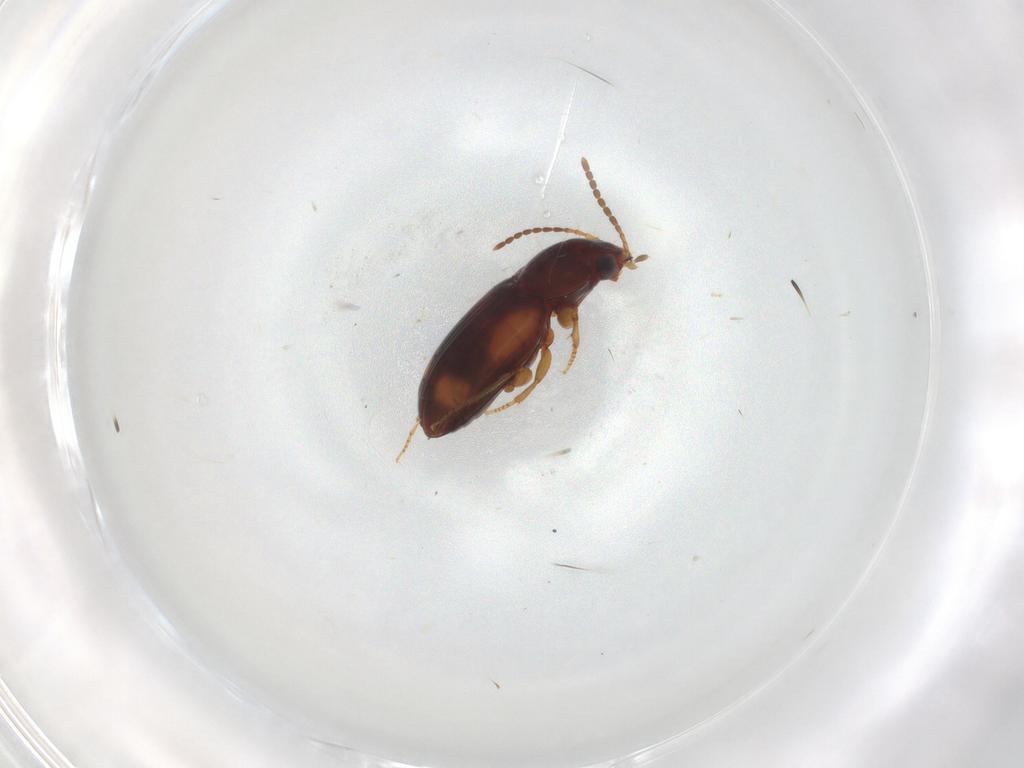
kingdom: Animalia
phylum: Arthropoda
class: Insecta
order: Coleoptera
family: Carabidae
